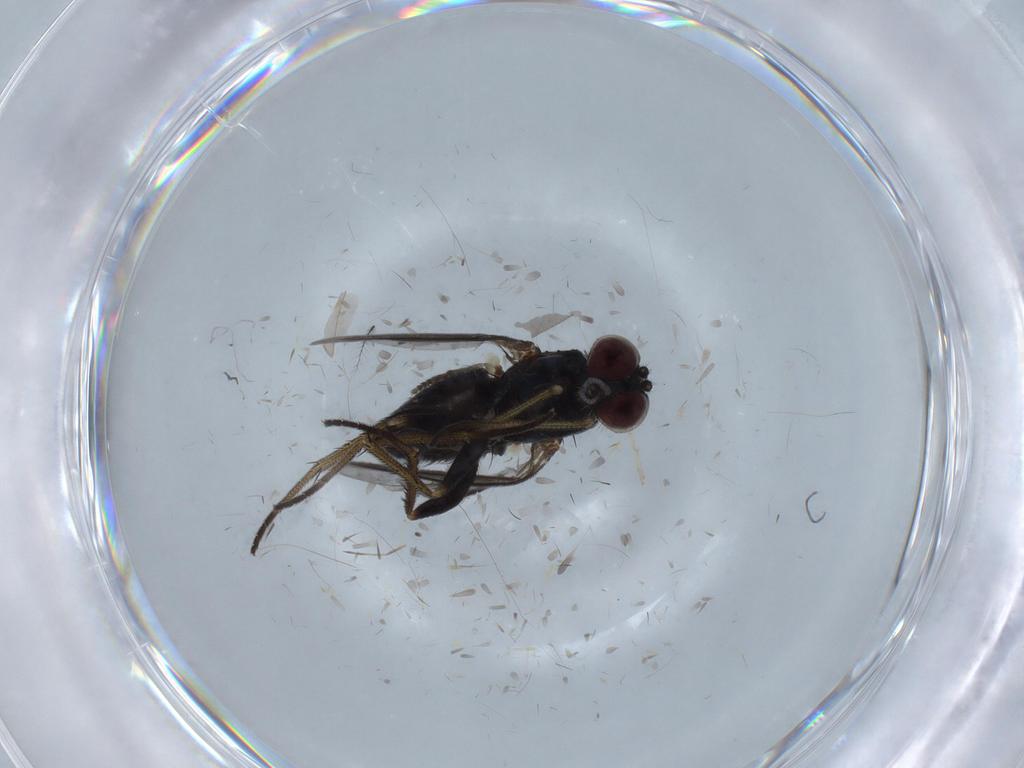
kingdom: Animalia
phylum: Arthropoda
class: Insecta
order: Diptera
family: Dolichopodidae
